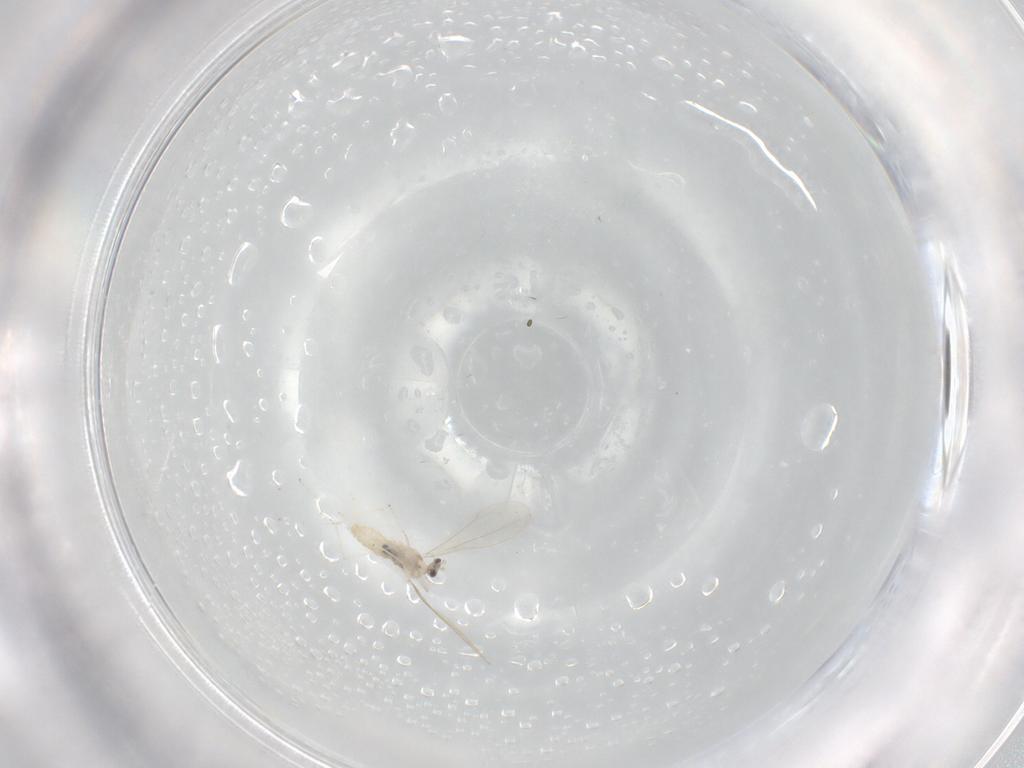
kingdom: Animalia
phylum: Arthropoda
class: Insecta
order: Diptera
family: Cecidomyiidae
